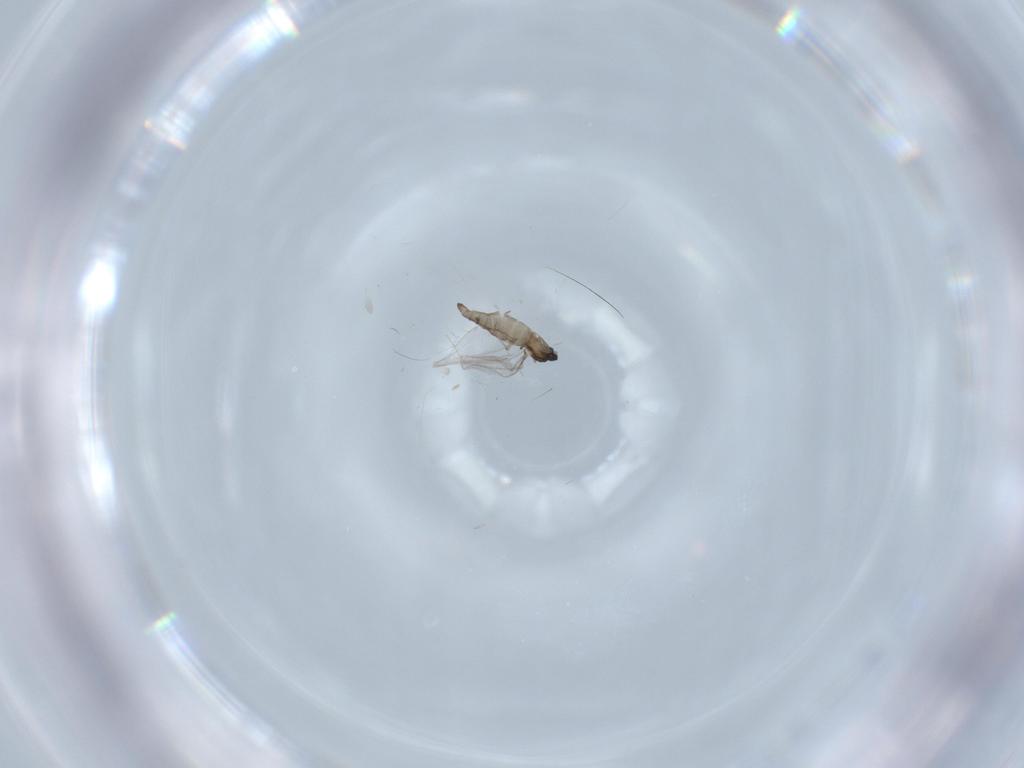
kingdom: Animalia
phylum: Arthropoda
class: Insecta
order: Diptera
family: Cecidomyiidae
